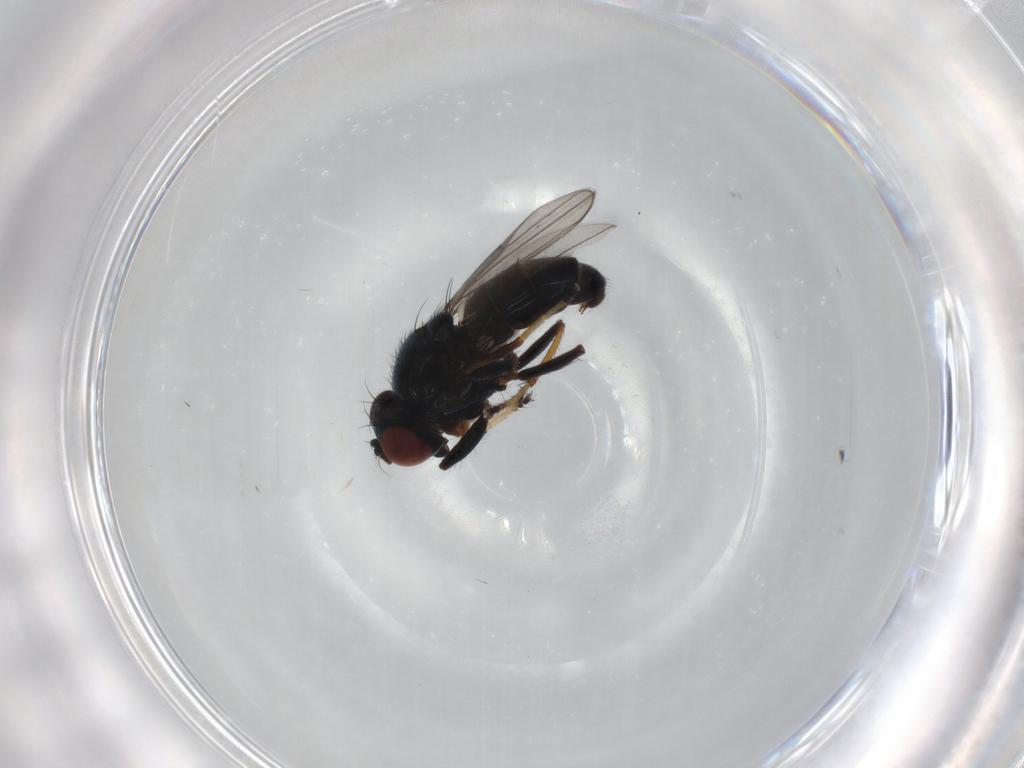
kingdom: Animalia
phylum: Arthropoda
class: Insecta
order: Diptera
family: Ephydridae
